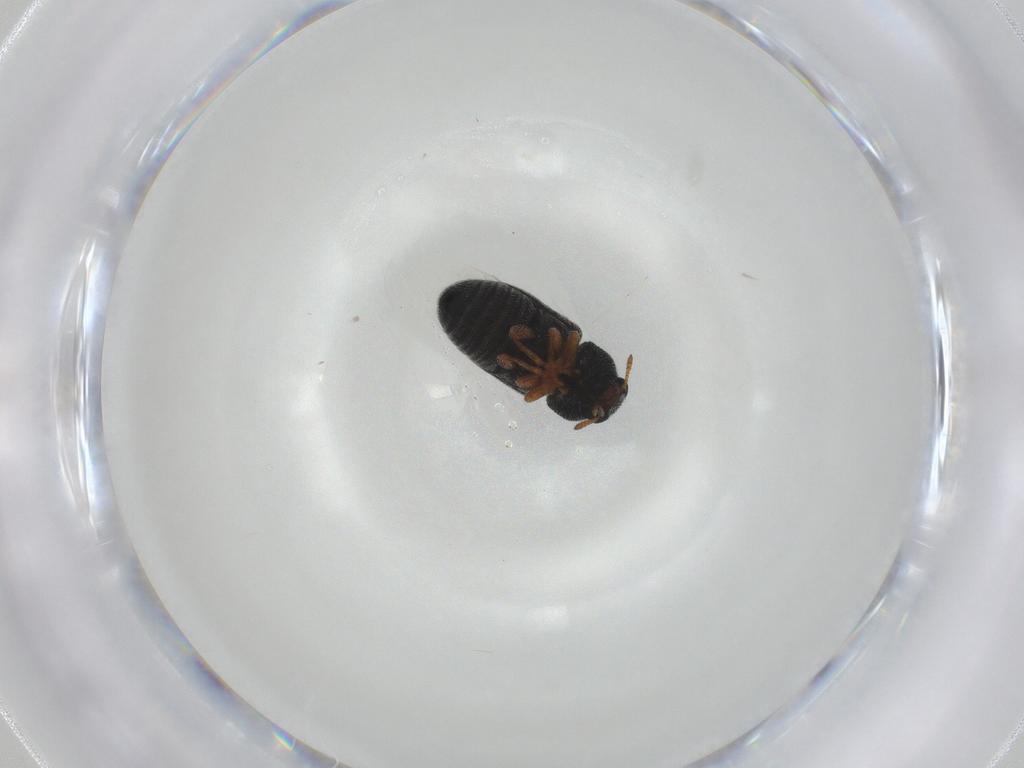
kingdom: Animalia
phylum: Arthropoda
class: Insecta
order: Coleoptera
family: Anthribidae
